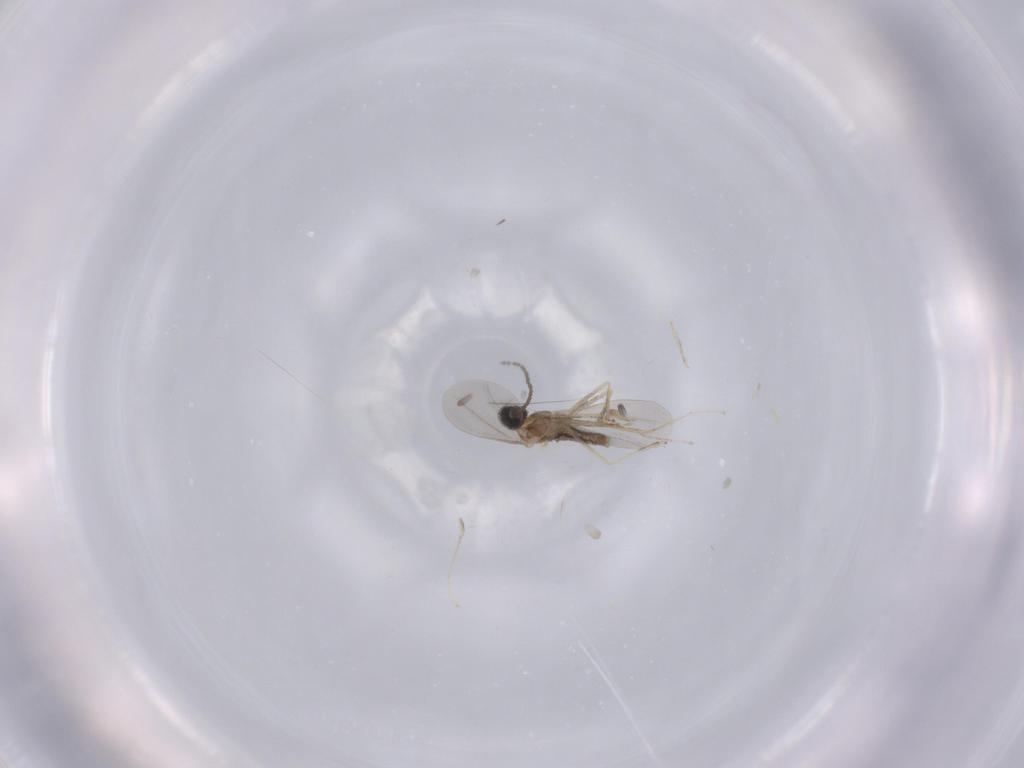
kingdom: Animalia
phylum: Arthropoda
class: Insecta
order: Diptera
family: Cecidomyiidae
